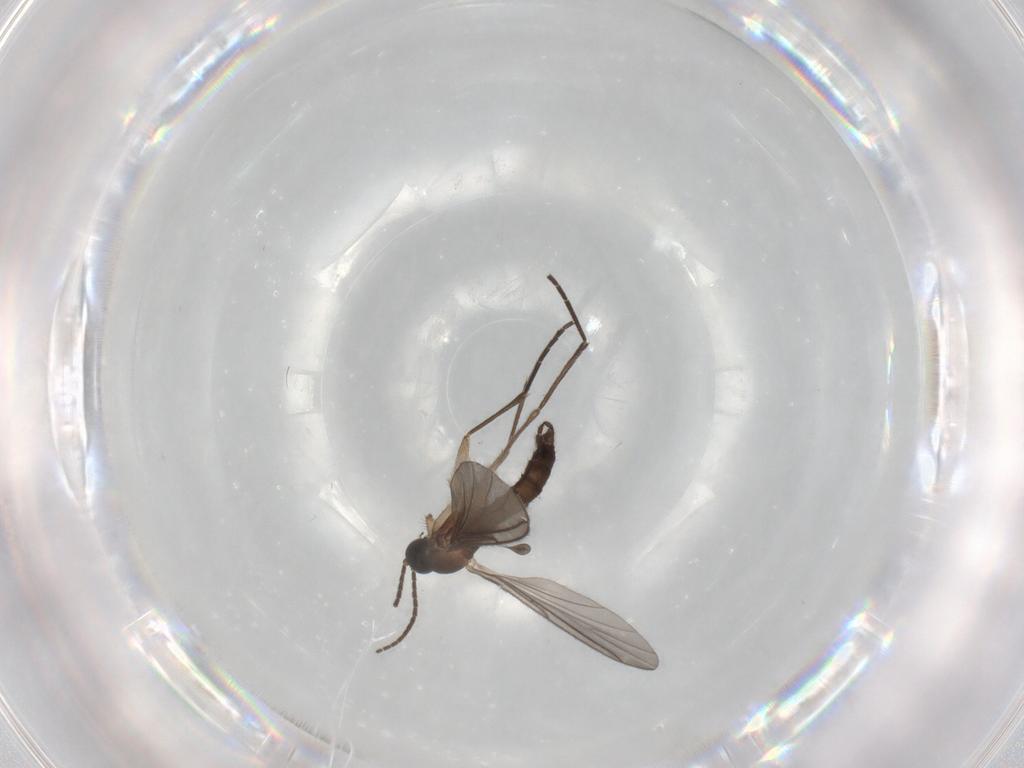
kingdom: Animalia
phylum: Arthropoda
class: Insecta
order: Diptera
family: Sciaridae
